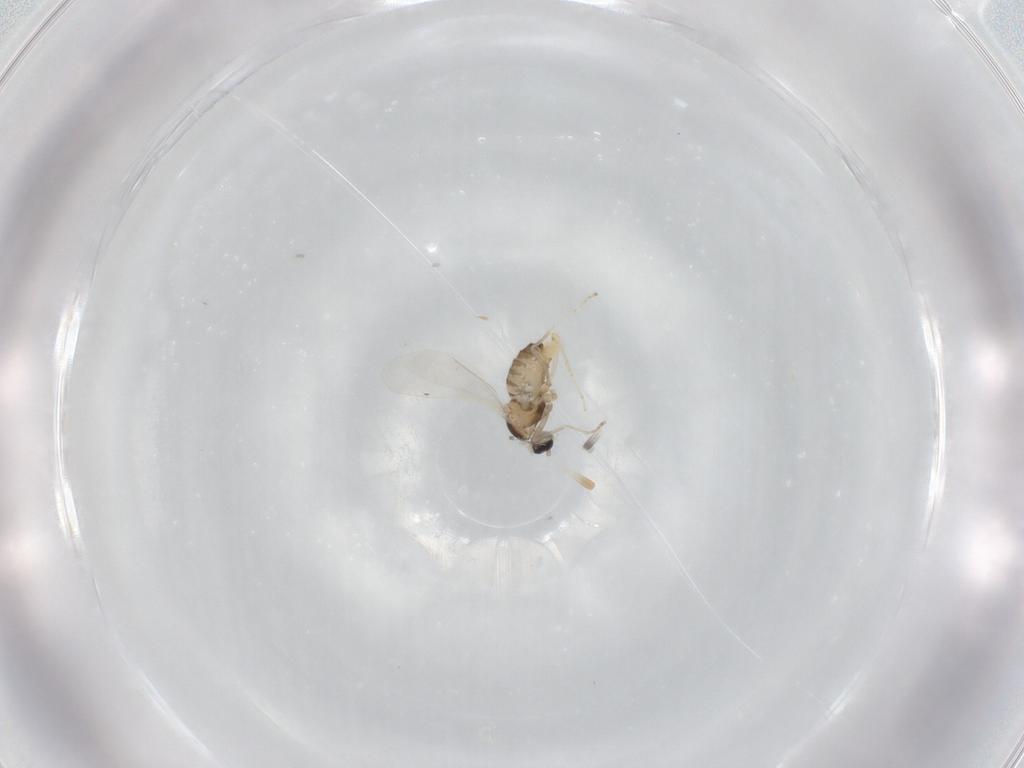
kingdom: Animalia
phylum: Arthropoda
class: Insecta
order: Diptera
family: Cecidomyiidae
